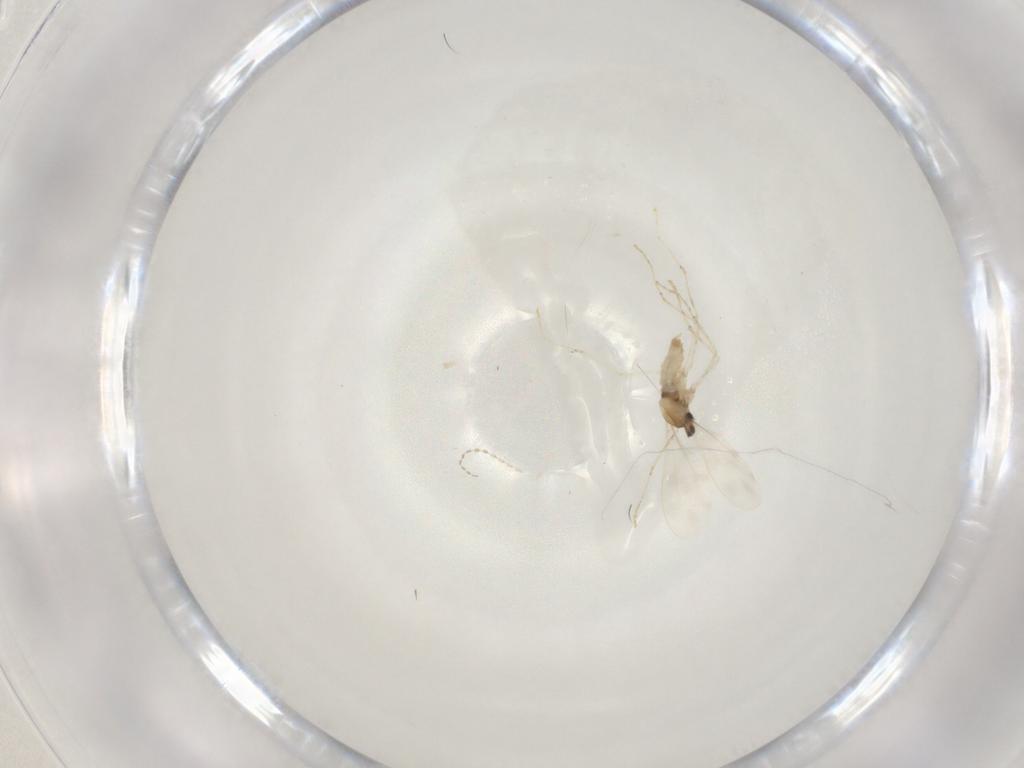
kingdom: Animalia
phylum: Arthropoda
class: Insecta
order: Diptera
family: Cecidomyiidae
